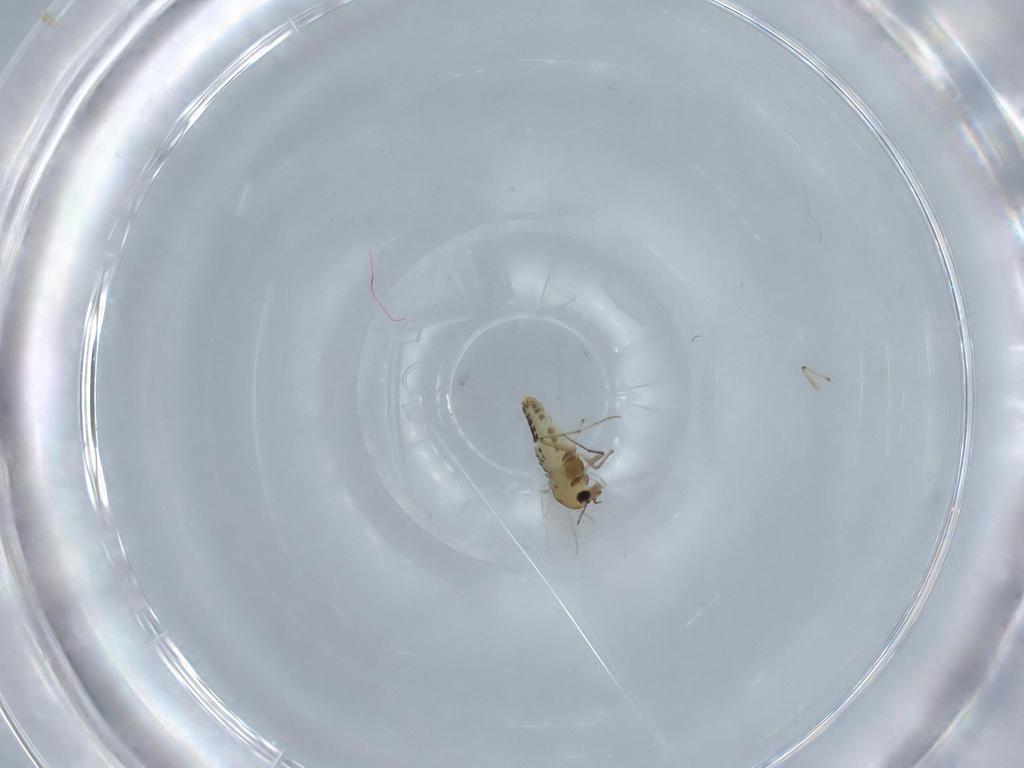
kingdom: Animalia
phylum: Arthropoda
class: Insecta
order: Diptera
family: Chironomidae
